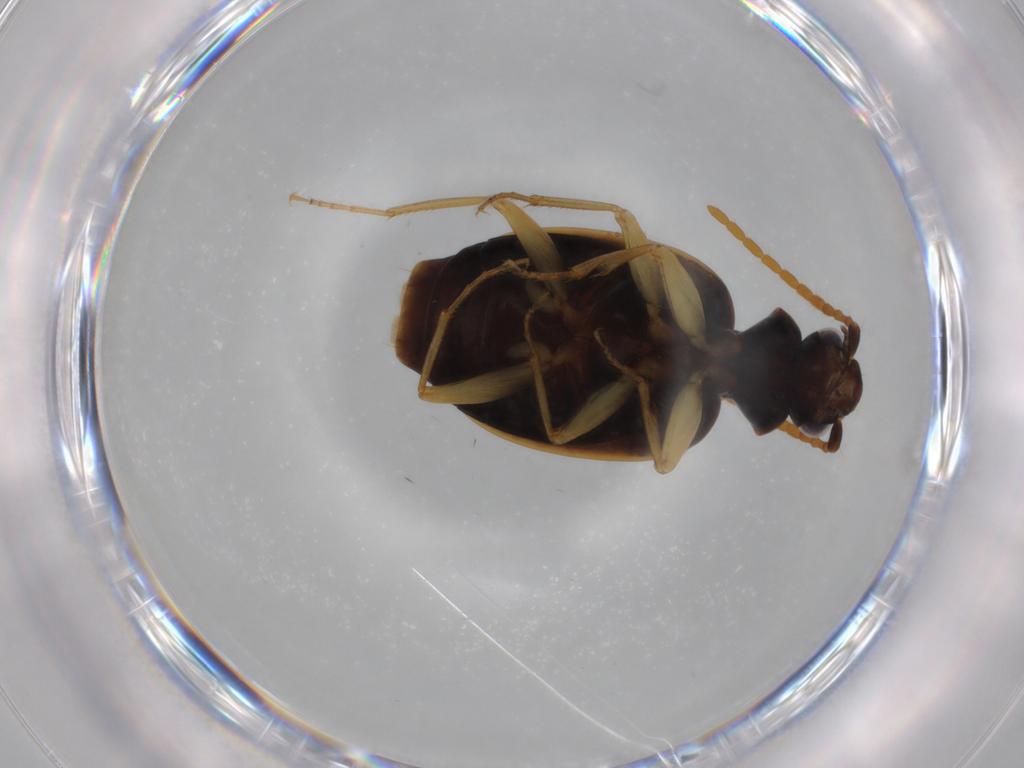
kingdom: Animalia
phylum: Arthropoda
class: Insecta
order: Coleoptera
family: Carabidae
